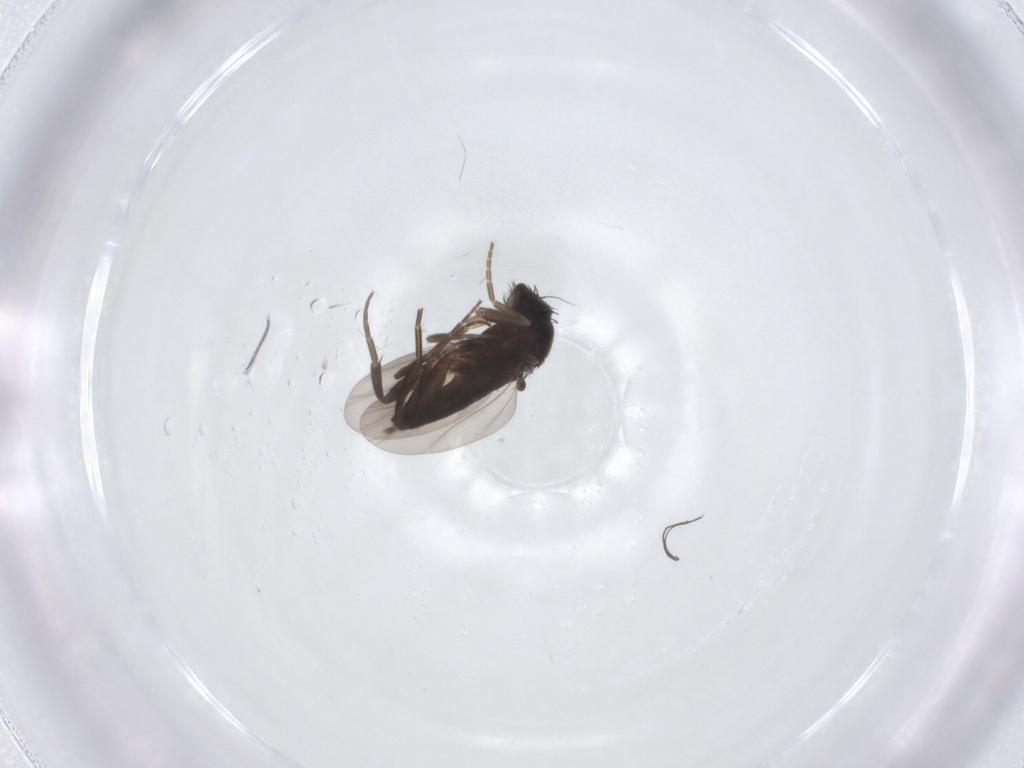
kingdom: Animalia
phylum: Arthropoda
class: Insecta
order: Diptera
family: Phoridae
